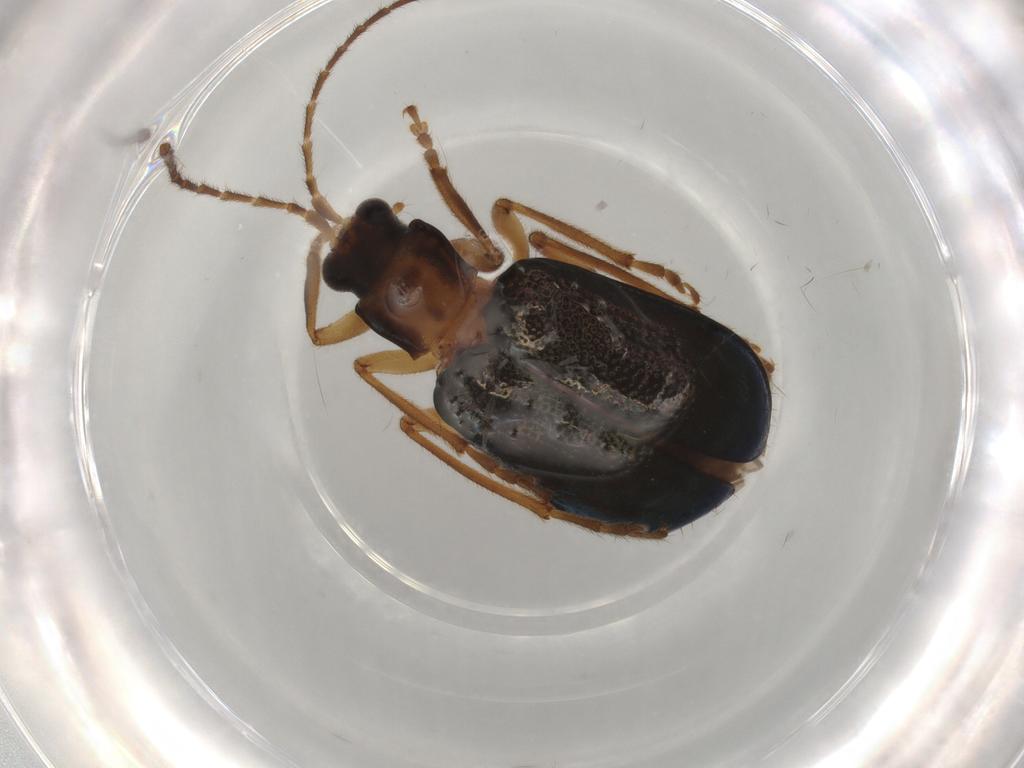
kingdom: Animalia
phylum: Arthropoda
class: Insecta
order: Coleoptera
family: Chrysomelidae
